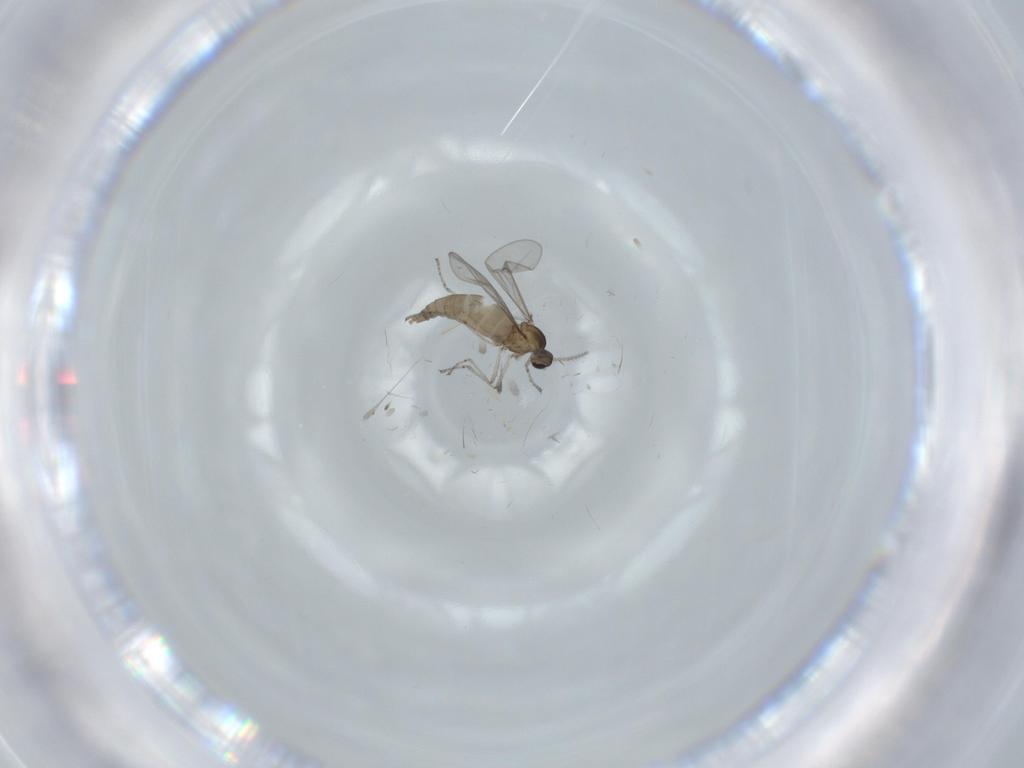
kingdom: Animalia
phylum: Arthropoda
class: Insecta
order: Diptera
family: Cecidomyiidae
